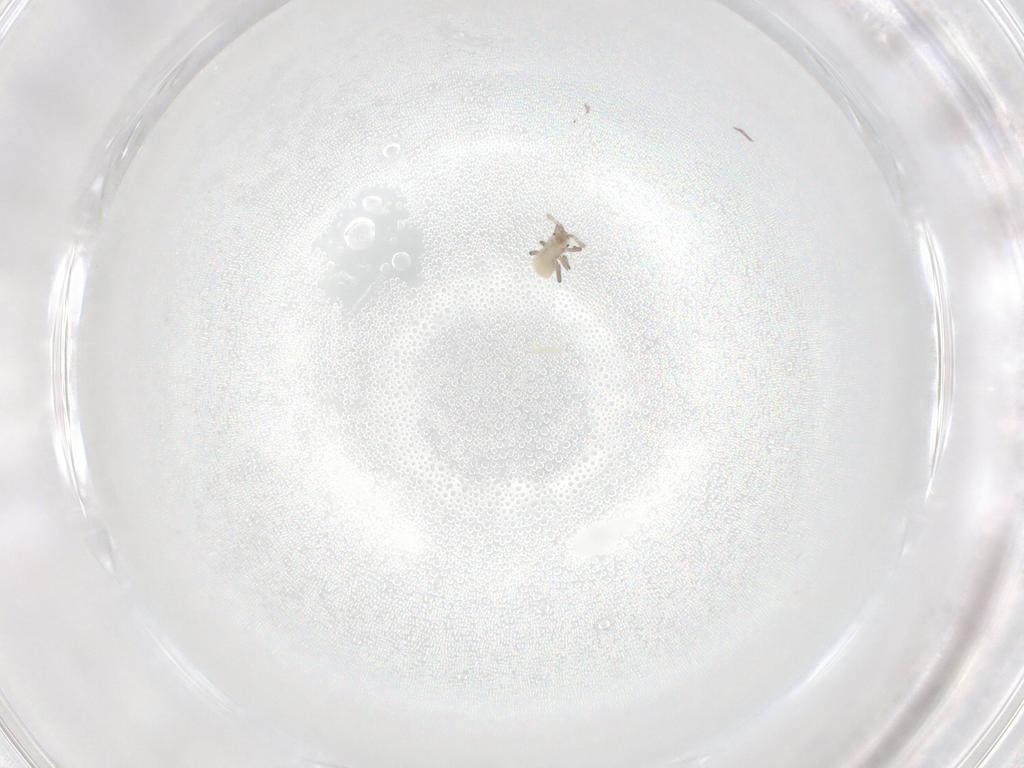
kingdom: Animalia
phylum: Arthropoda
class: Insecta
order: Hemiptera
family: Aphididae
